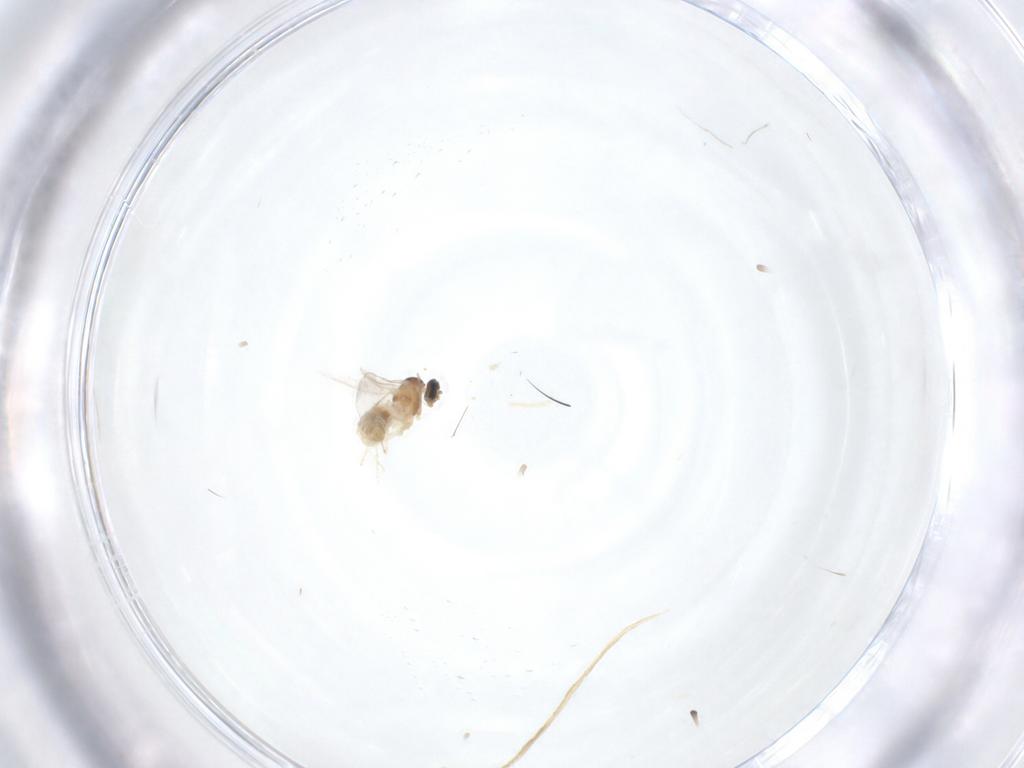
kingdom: Animalia
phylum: Arthropoda
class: Insecta
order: Diptera
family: Cecidomyiidae
